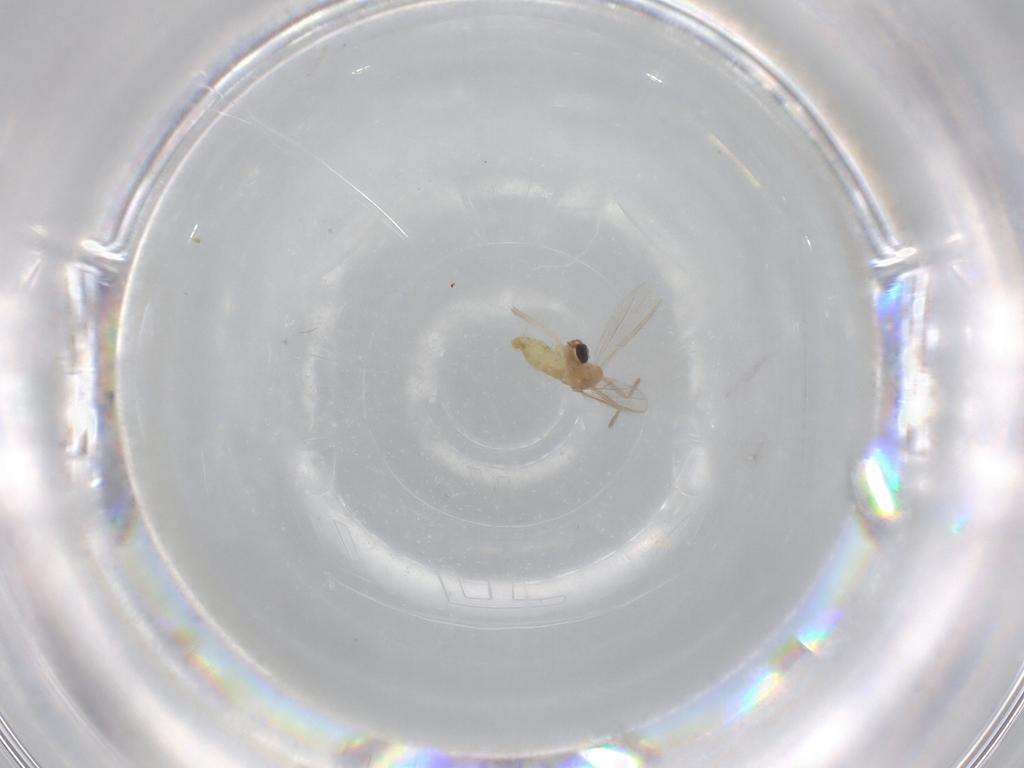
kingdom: Animalia
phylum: Arthropoda
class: Insecta
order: Diptera
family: Chironomidae
